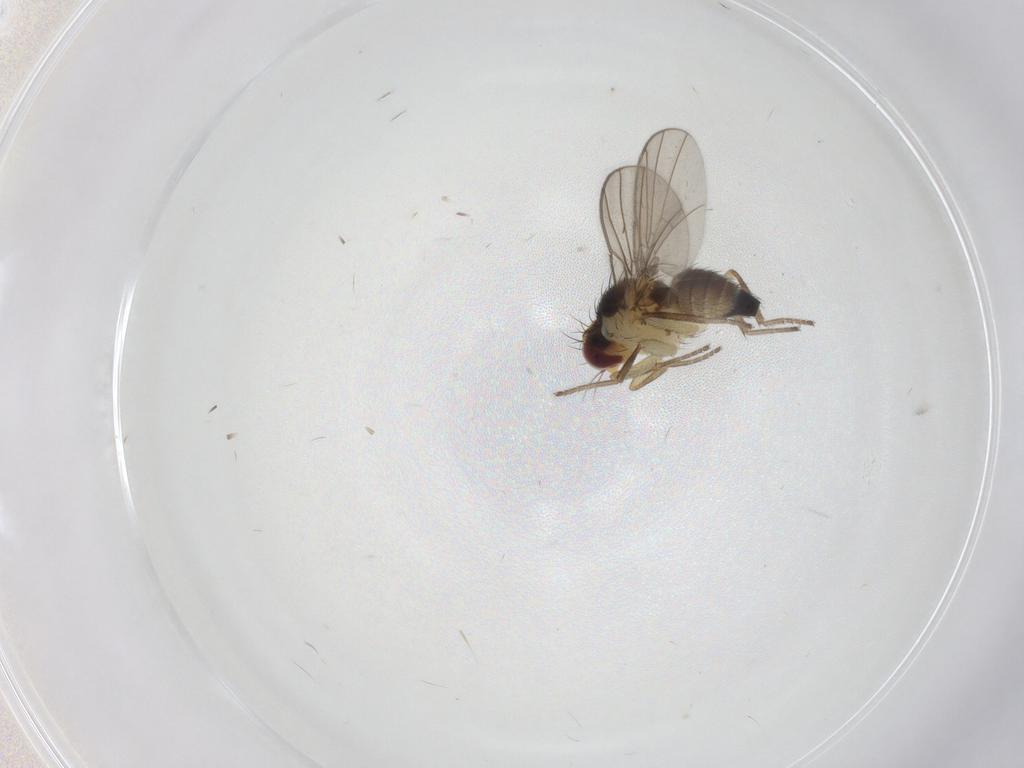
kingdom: Animalia
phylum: Arthropoda
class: Insecta
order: Diptera
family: Agromyzidae
